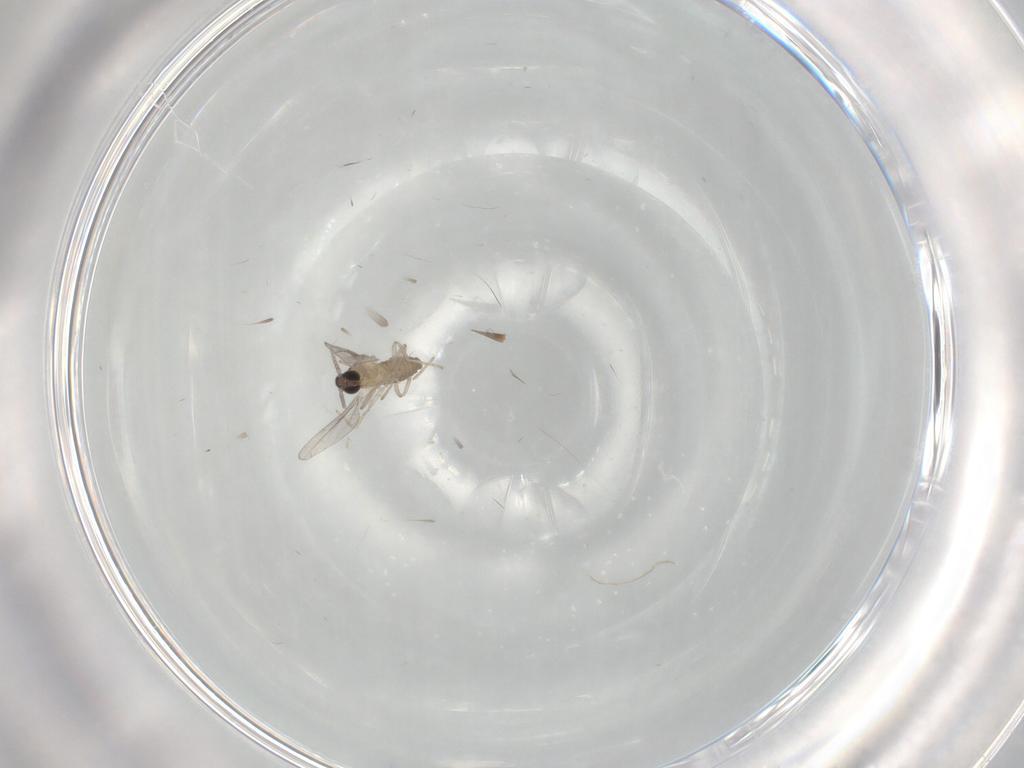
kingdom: Animalia
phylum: Arthropoda
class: Insecta
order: Diptera
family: Cecidomyiidae
